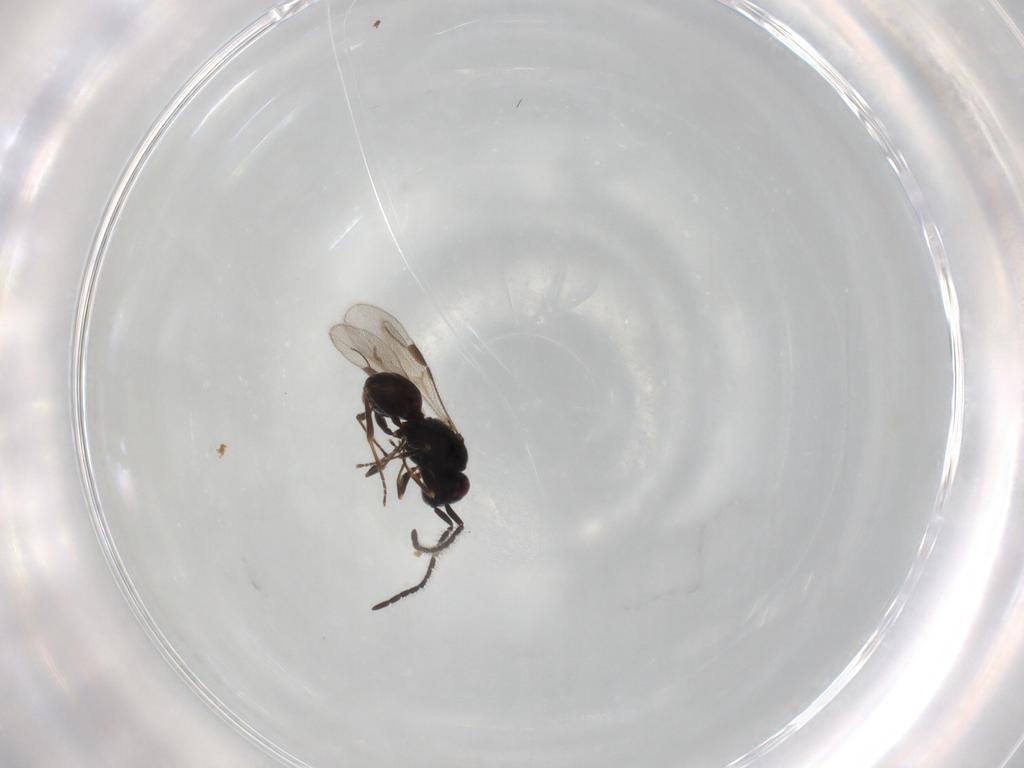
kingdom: Animalia
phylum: Arthropoda
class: Insecta
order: Hymenoptera
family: Megaspilidae
